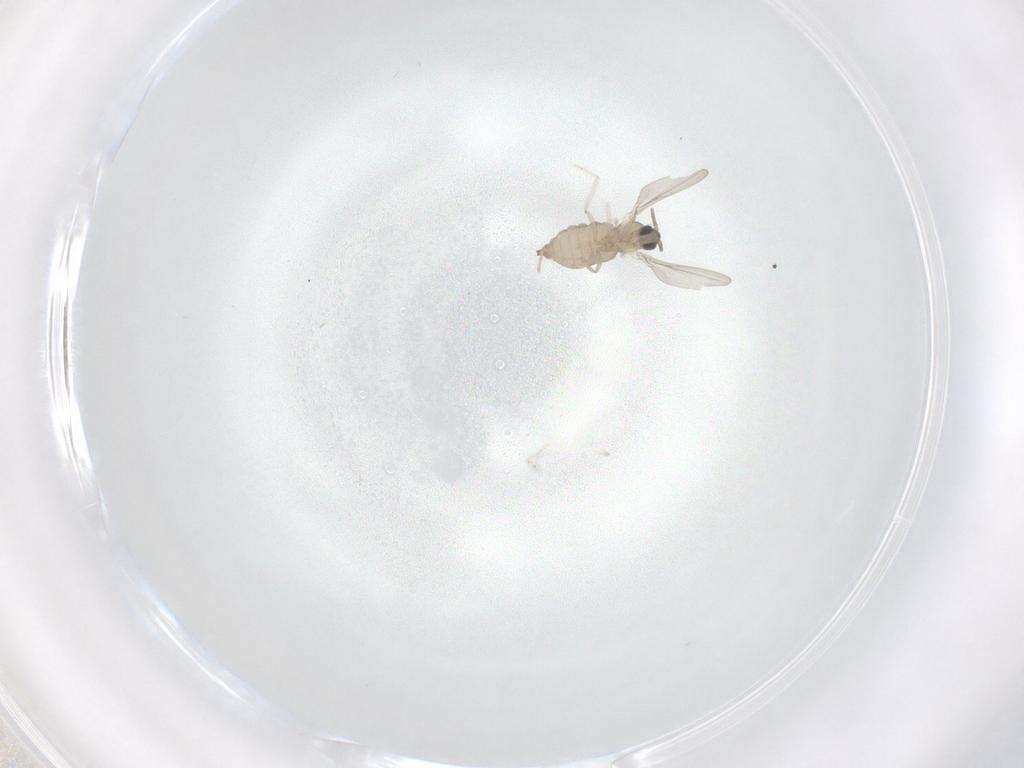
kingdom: Animalia
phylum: Arthropoda
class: Insecta
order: Diptera
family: Cecidomyiidae
